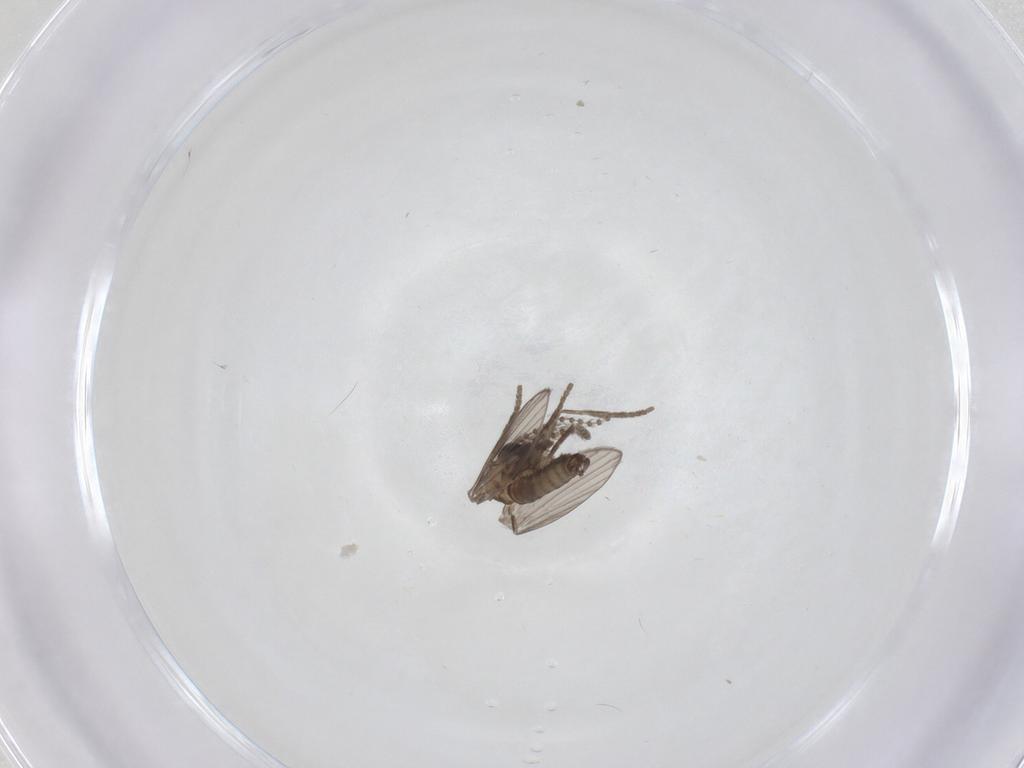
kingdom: Animalia
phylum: Arthropoda
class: Insecta
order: Diptera
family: Psychodidae
